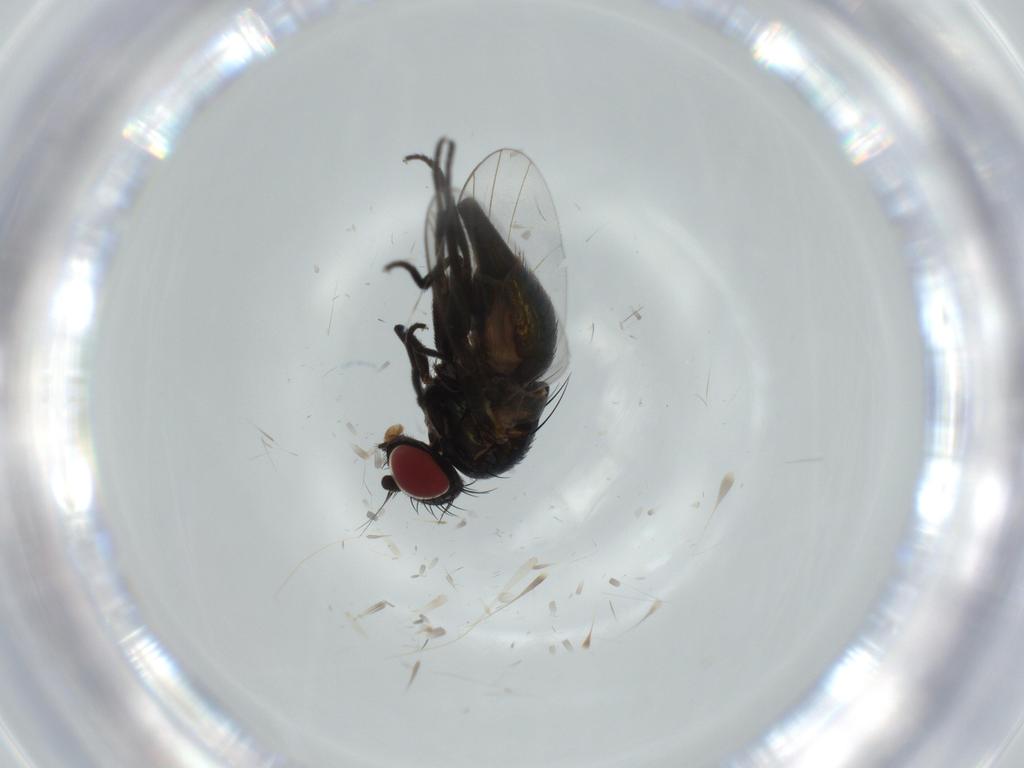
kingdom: Animalia
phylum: Arthropoda
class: Insecta
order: Diptera
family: Agromyzidae
